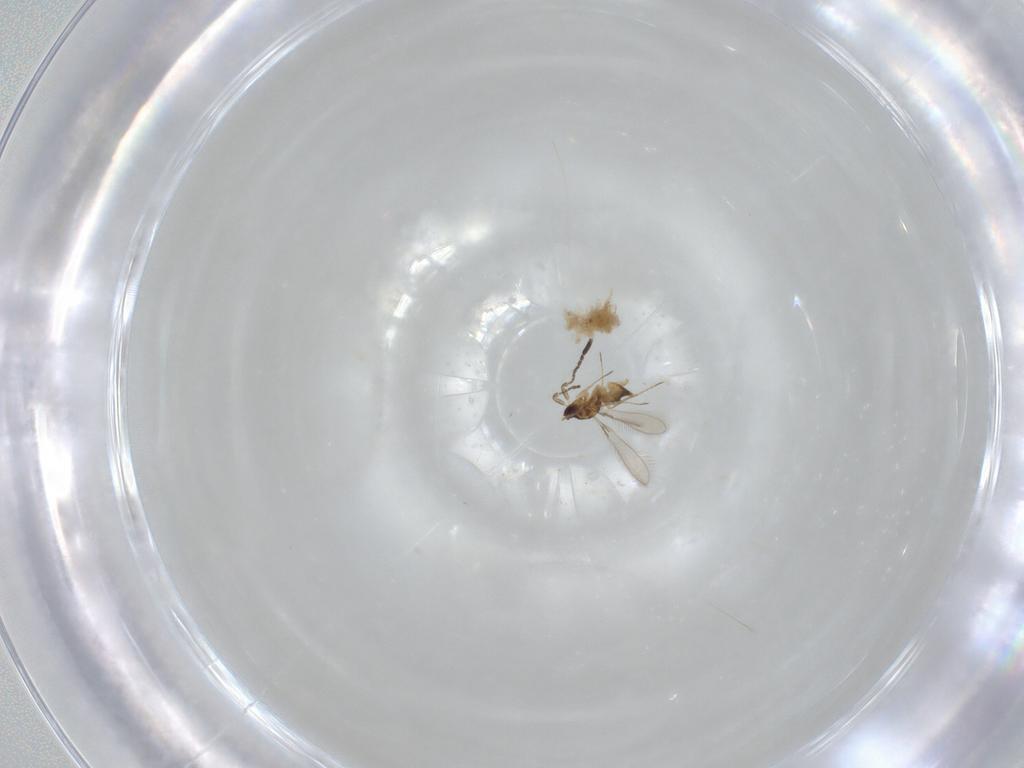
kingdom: Animalia
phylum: Arthropoda
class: Insecta
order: Hymenoptera
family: Mymaridae
